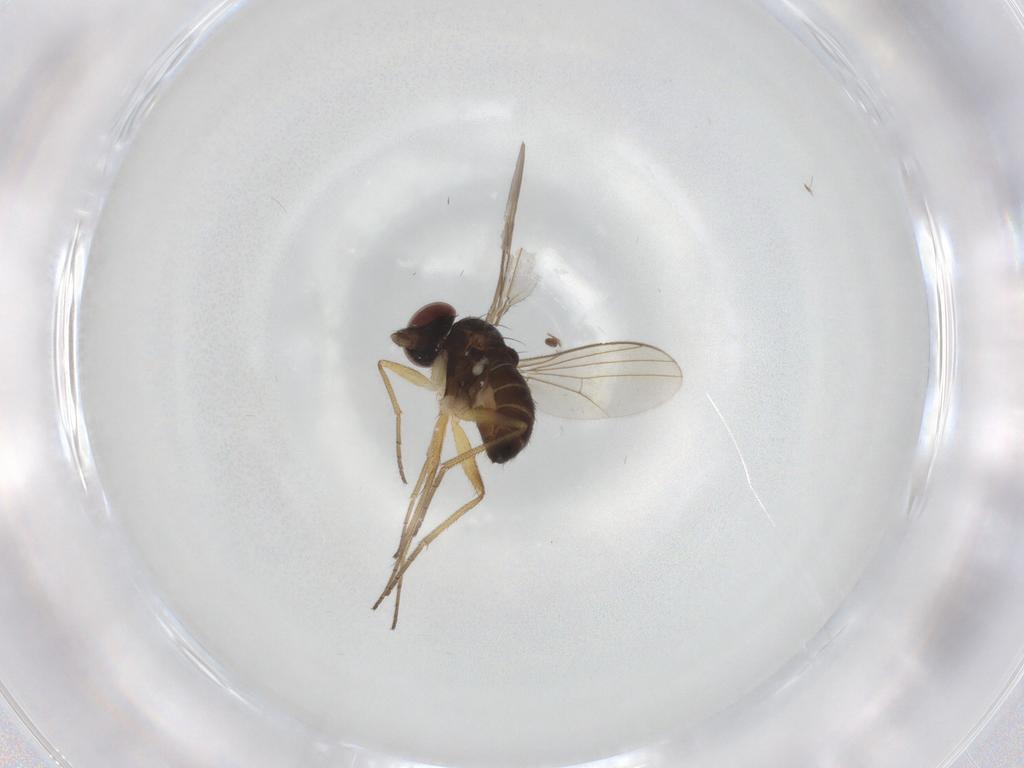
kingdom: Animalia
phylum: Arthropoda
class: Insecta
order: Diptera
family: Dolichopodidae
